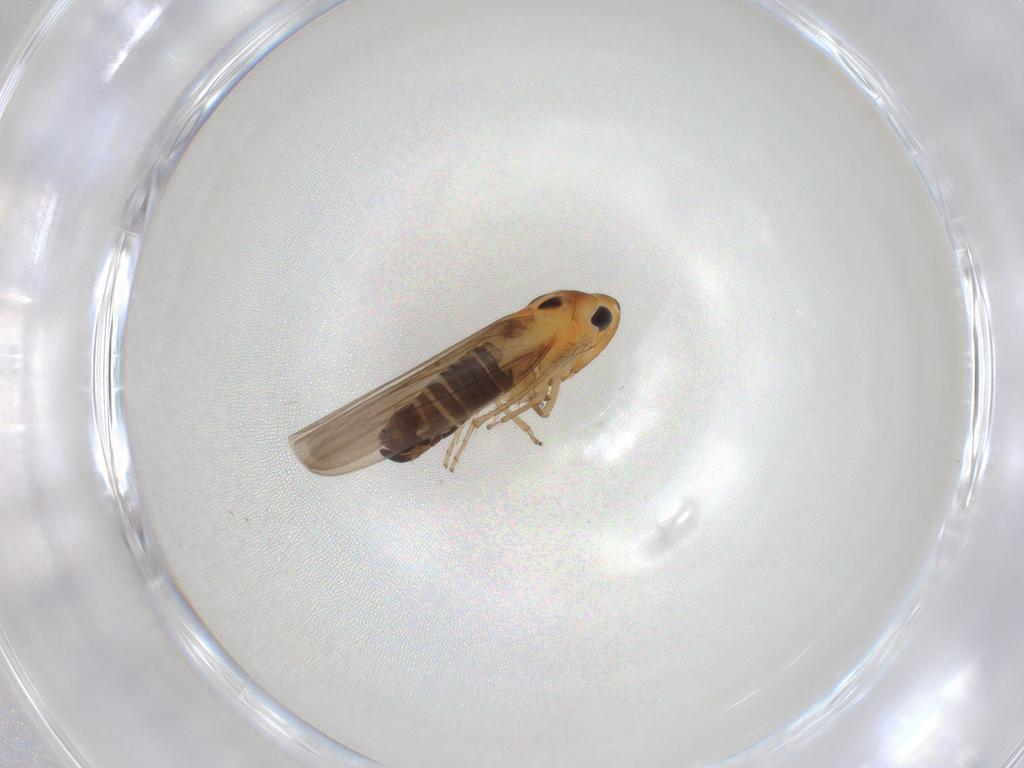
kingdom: Animalia
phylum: Arthropoda
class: Insecta
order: Hemiptera
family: Cicadellidae
